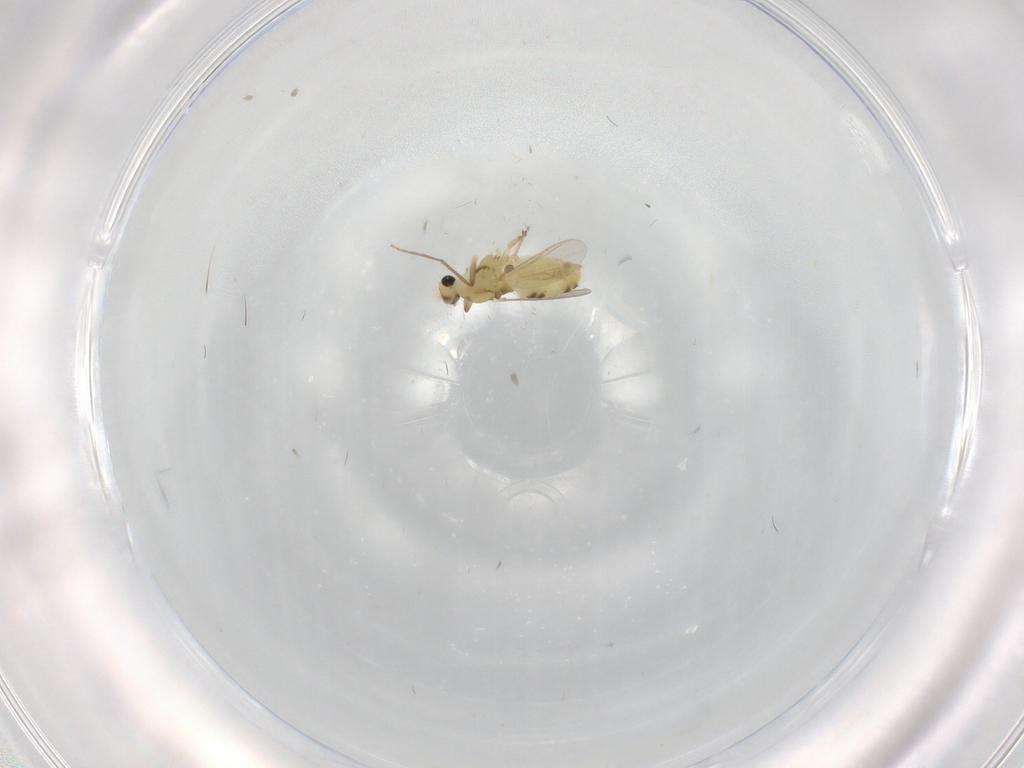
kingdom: Animalia
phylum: Arthropoda
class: Insecta
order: Diptera
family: Chironomidae
